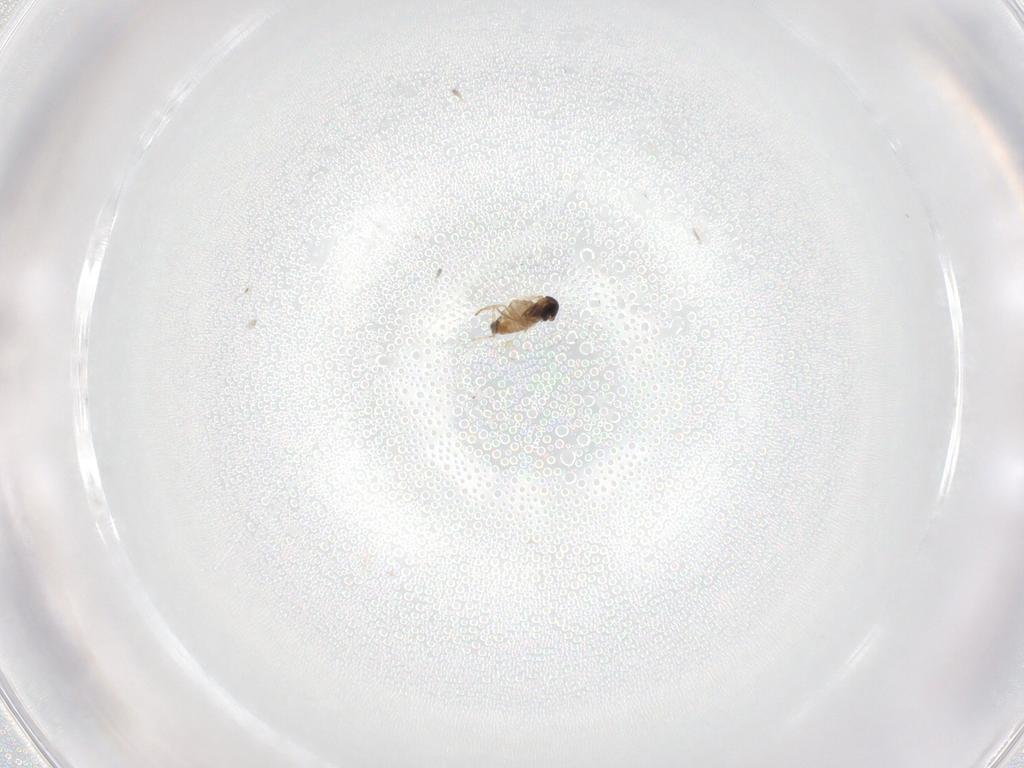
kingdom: Animalia
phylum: Arthropoda
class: Insecta
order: Diptera
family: Cecidomyiidae
